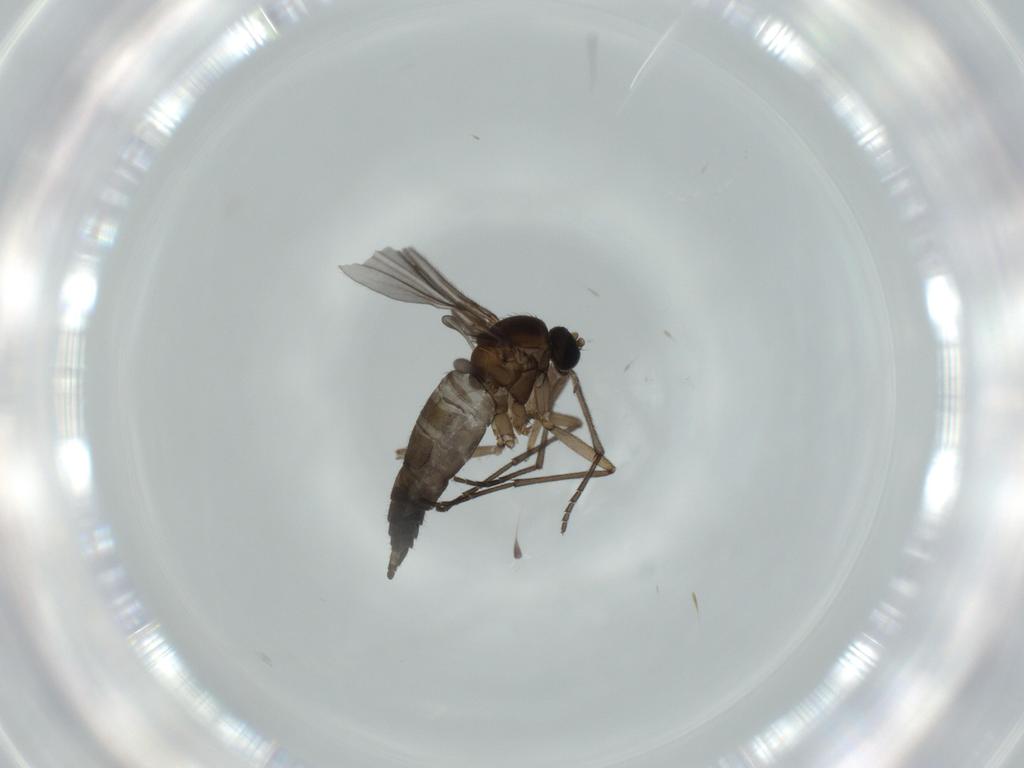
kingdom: Animalia
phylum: Arthropoda
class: Insecta
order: Diptera
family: Sciaridae
